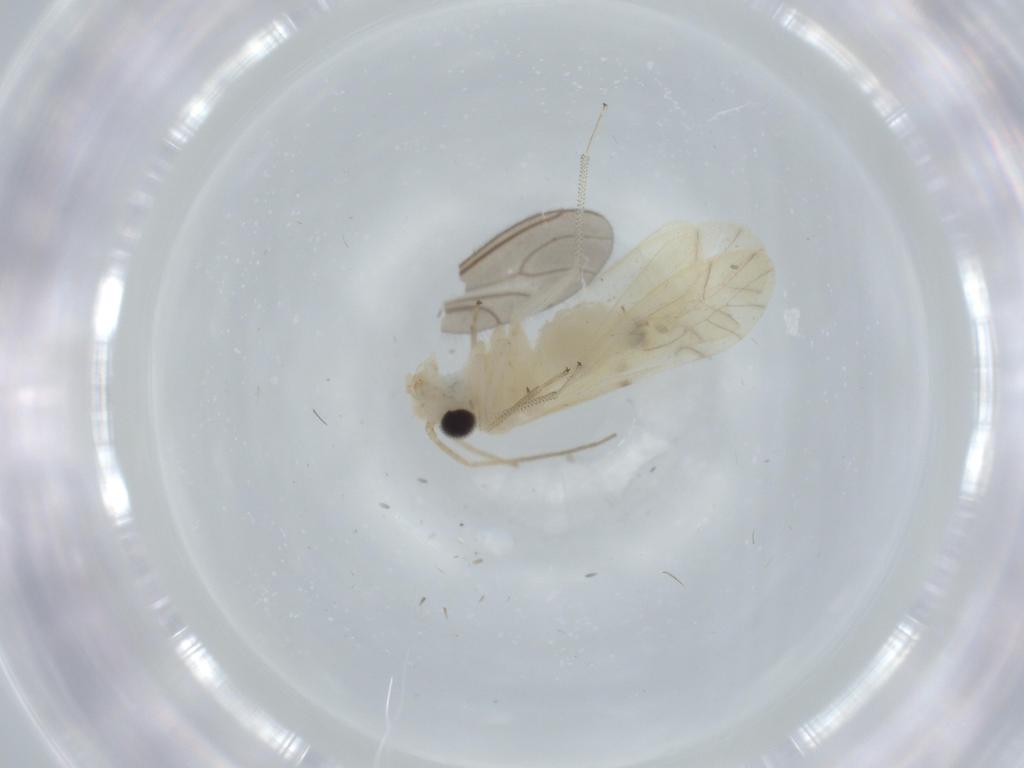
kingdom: Animalia
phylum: Arthropoda
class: Insecta
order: Psocodea
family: Caeciliusidae
